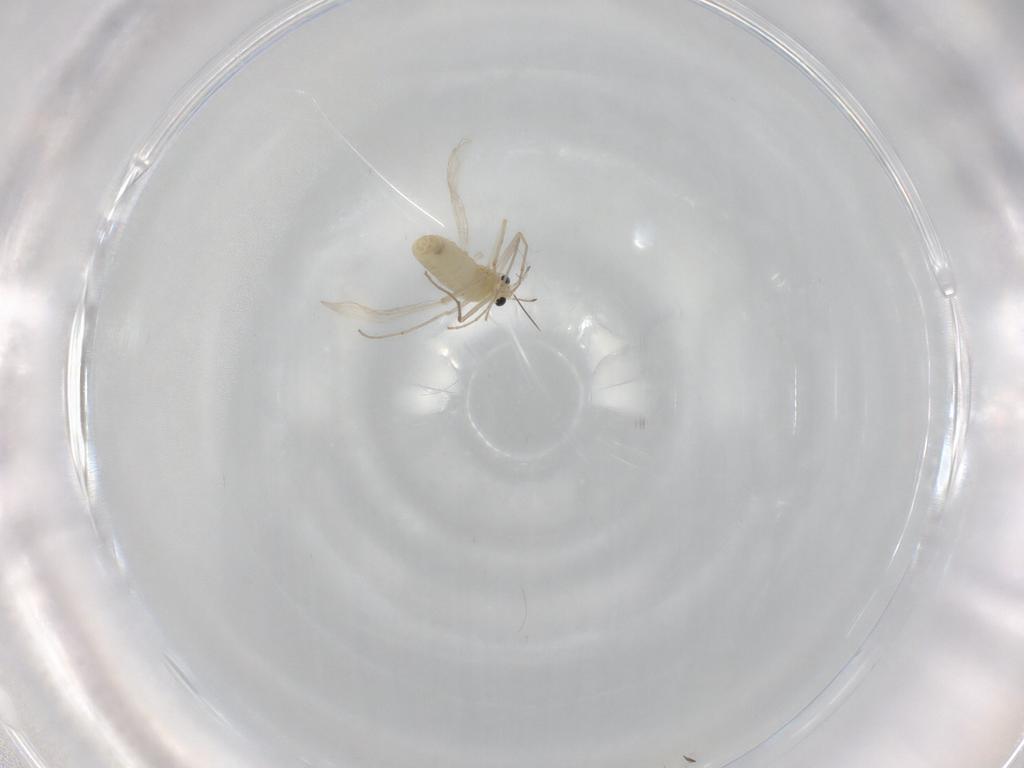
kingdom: Animalia
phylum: Arthropoda
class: Insecta
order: Diptera
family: Chironomidae
